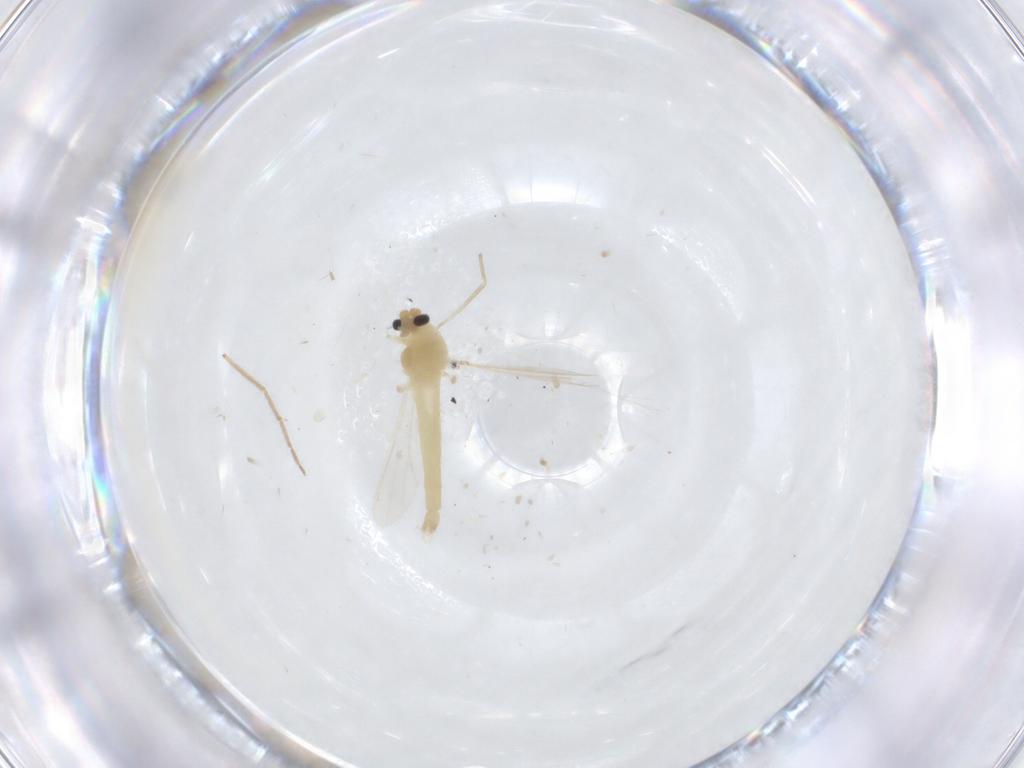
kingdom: Animalia
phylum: Arthropoda
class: Insecta
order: Diptera
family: Chironomidae
